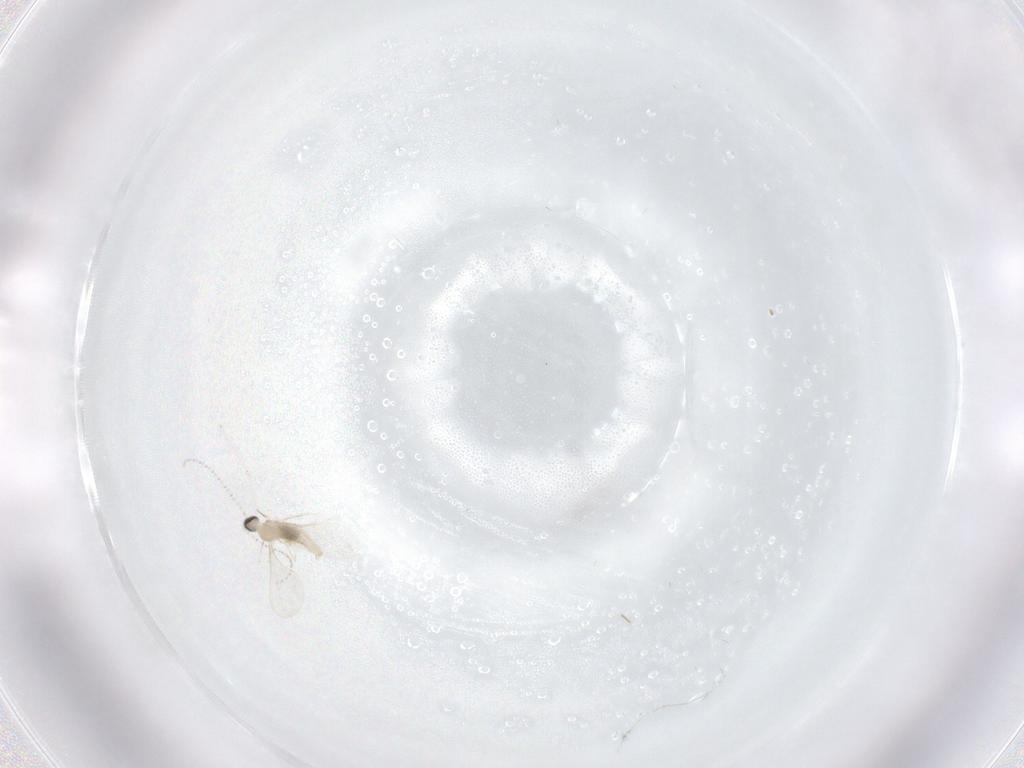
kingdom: Animalia
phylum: Arthropoda
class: Insecta
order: Diptera
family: Cecidomyiidae
